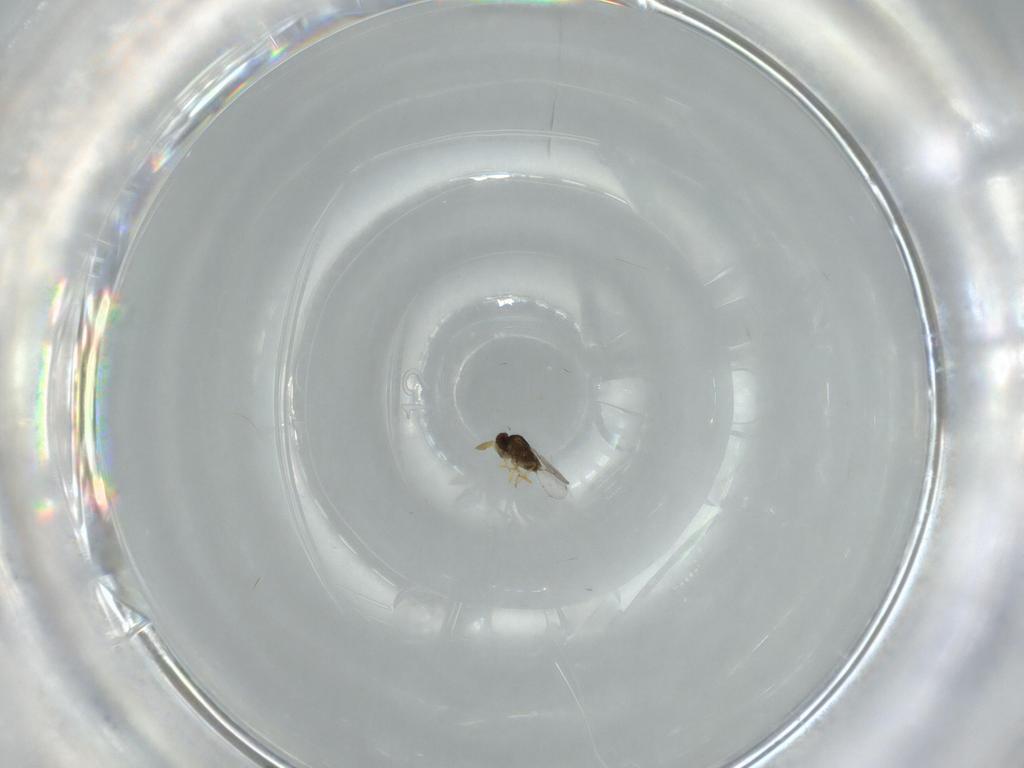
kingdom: Animalia
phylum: Arthropoda
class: Insecta
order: Hymenoptera
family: Encyrtidae
